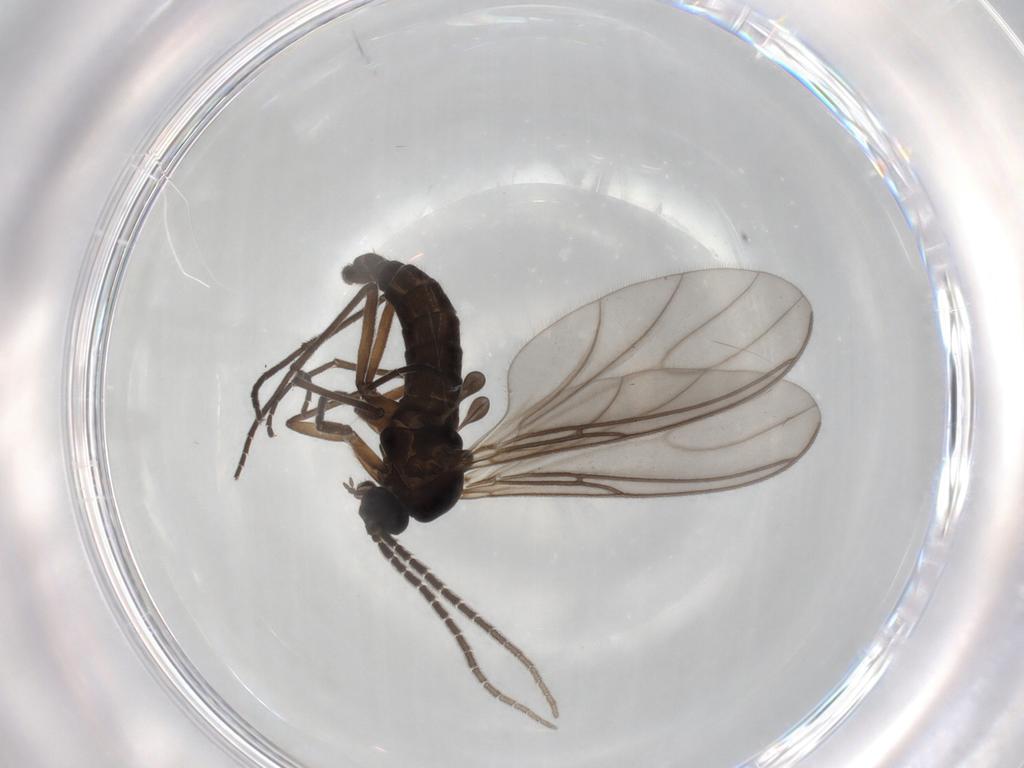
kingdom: Animalia
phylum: Arthropoda
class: Insecta
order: Diptera
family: Sciaridae
